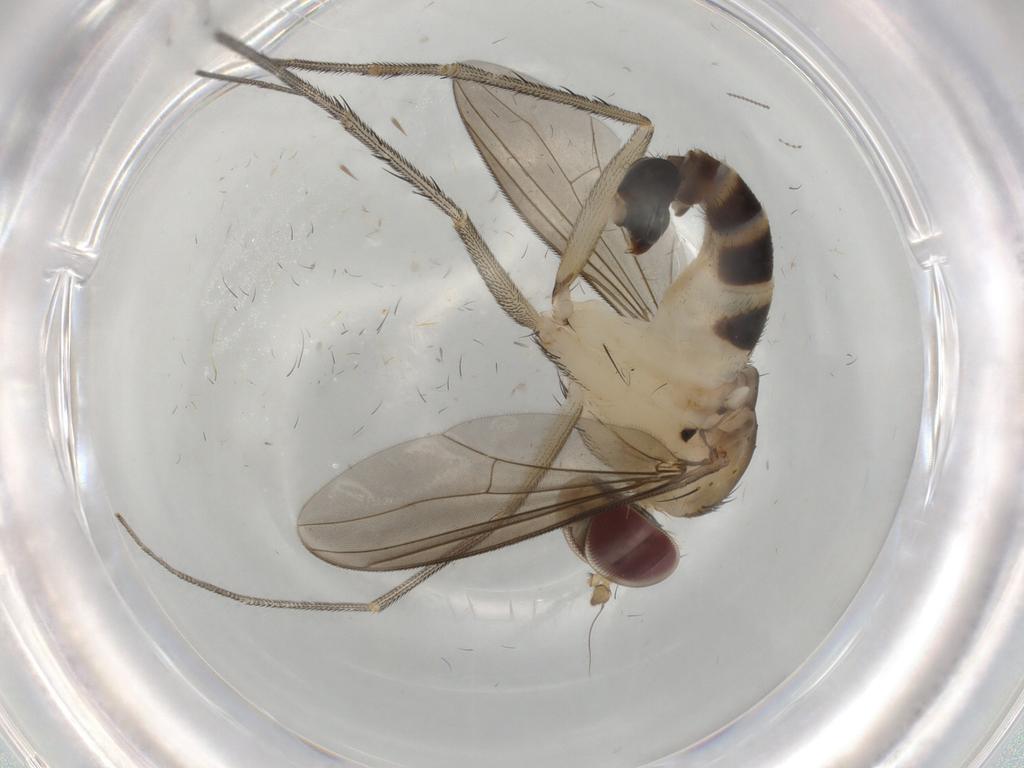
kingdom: Animalia
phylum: Arthropoda
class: Insecta
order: Diptera
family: Psychodidae
